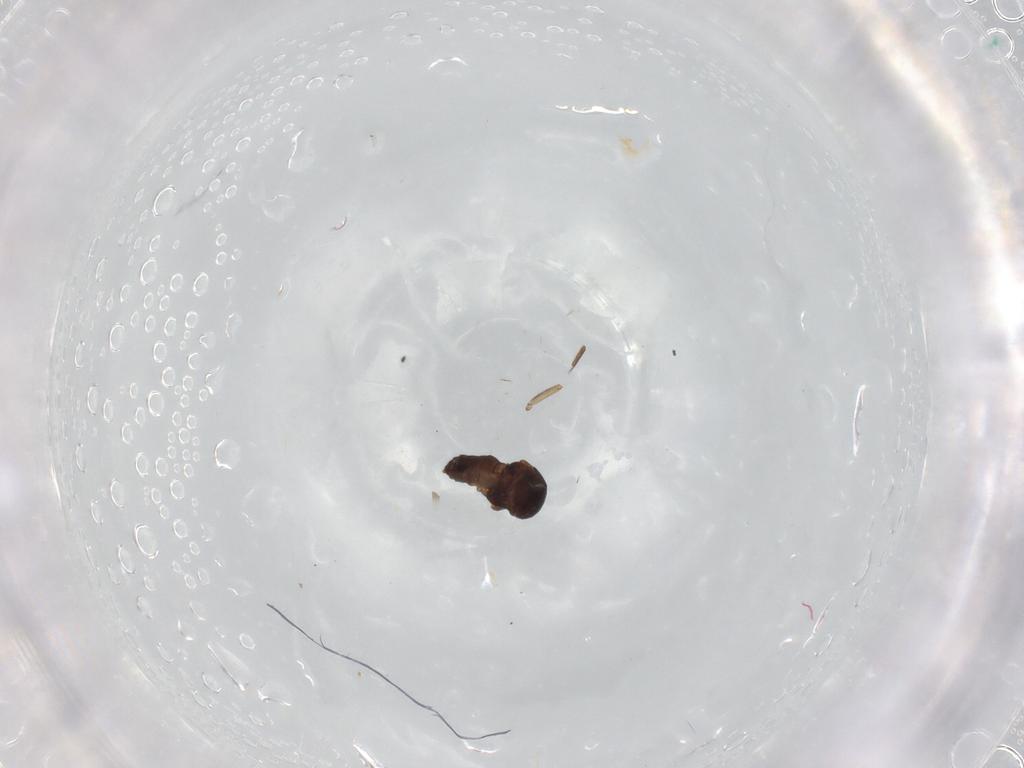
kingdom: Animalia
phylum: Arthropoda
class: Insecta
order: Diptera
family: Ceratopogonidae
